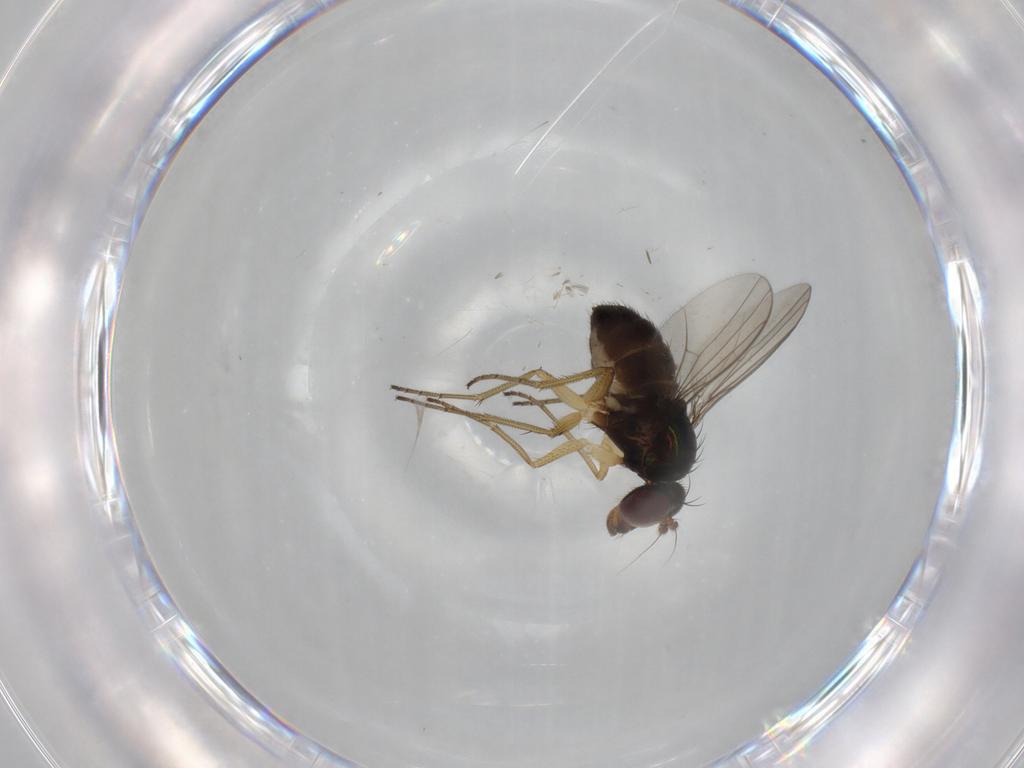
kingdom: Animalia
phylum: Arthropoda
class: Insecta
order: Diptera
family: Dolichopodidae
